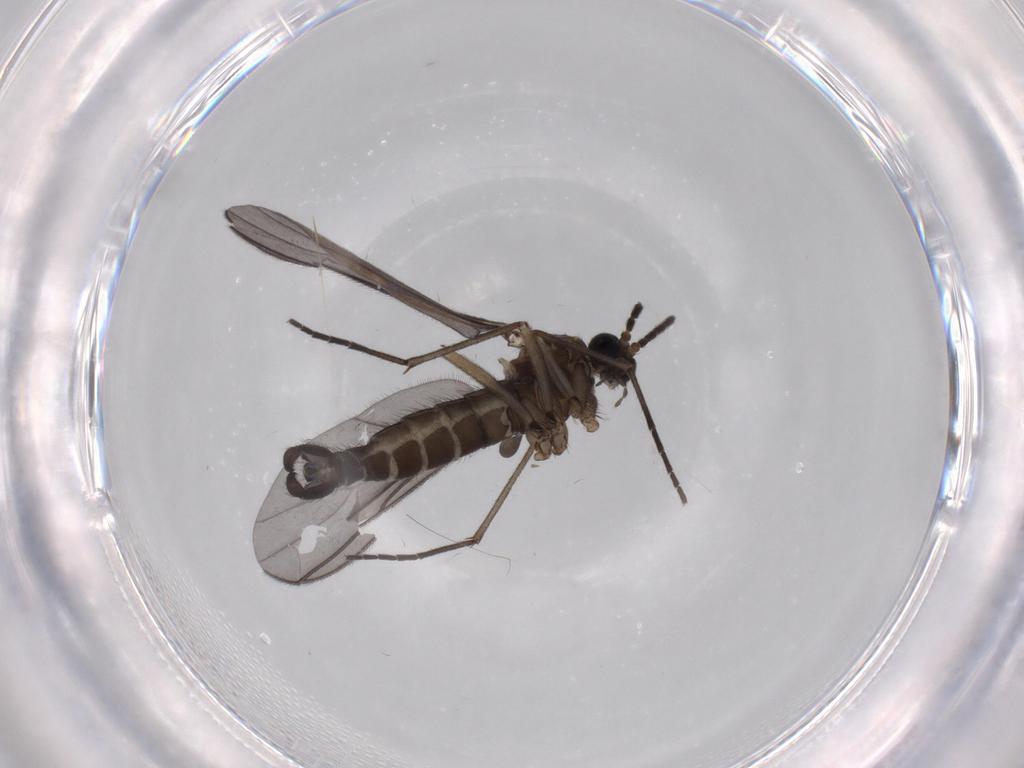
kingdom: Animalia
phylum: Arthropoda
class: Insecta
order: Diptera
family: Sciaridae
